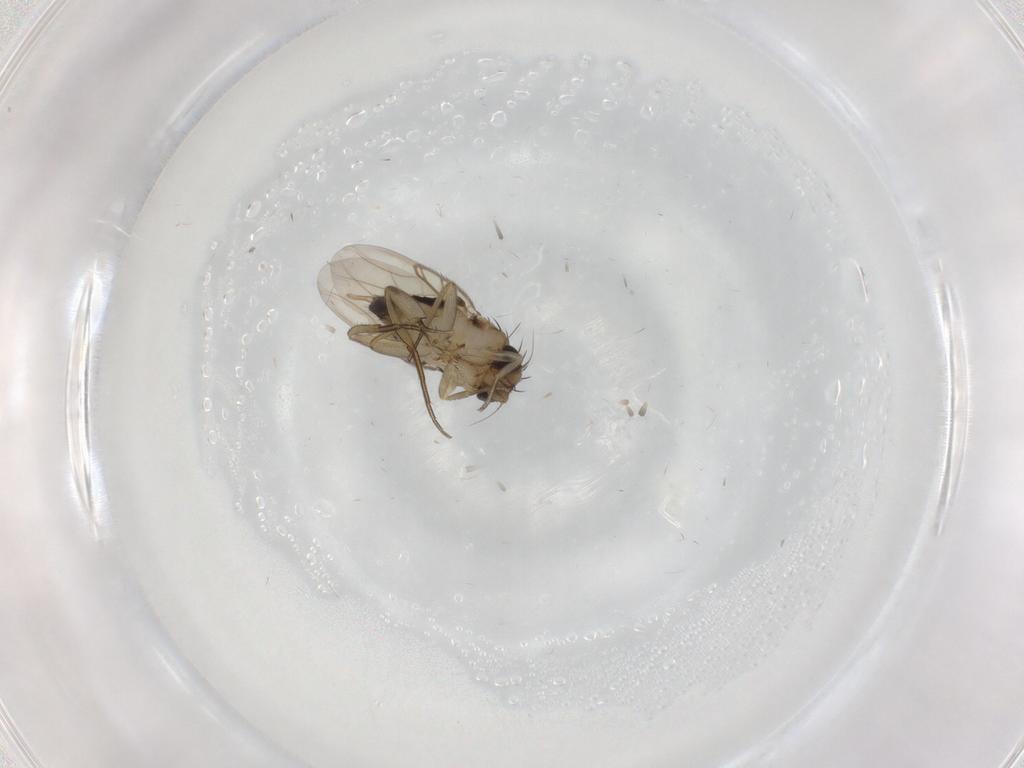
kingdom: Animalia
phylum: Arthropoda
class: Insecta
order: Diptera
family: Phoridae
